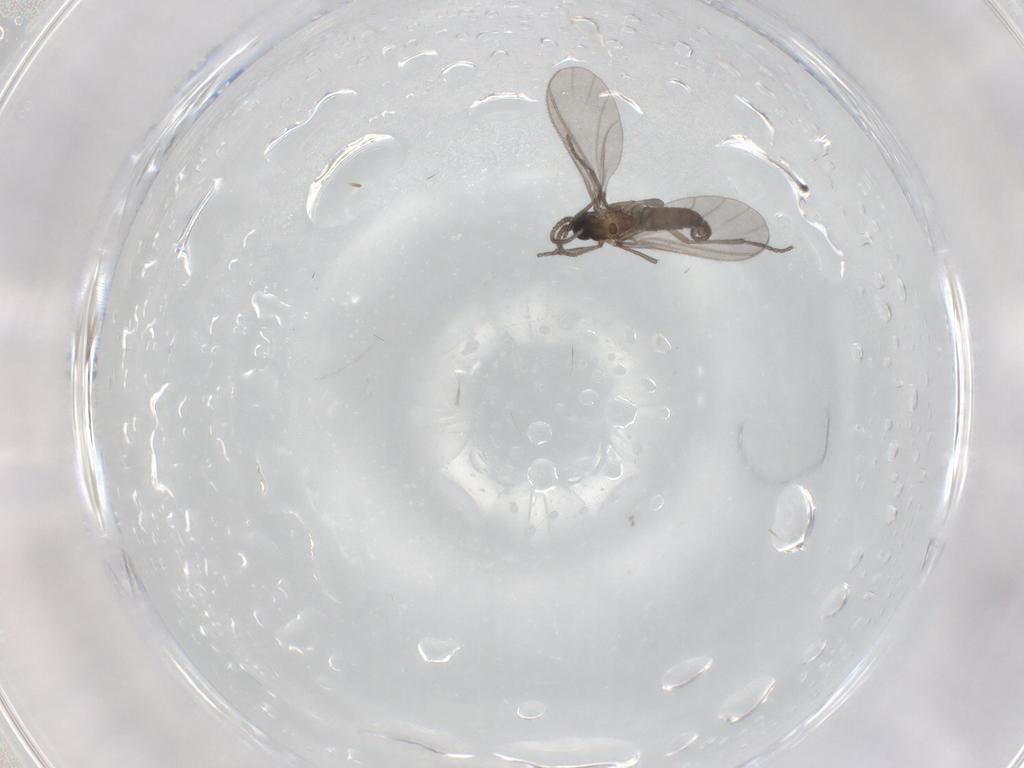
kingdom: Animalia
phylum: Arthropoda
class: Insecta
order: Diptera
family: Sciaridae
